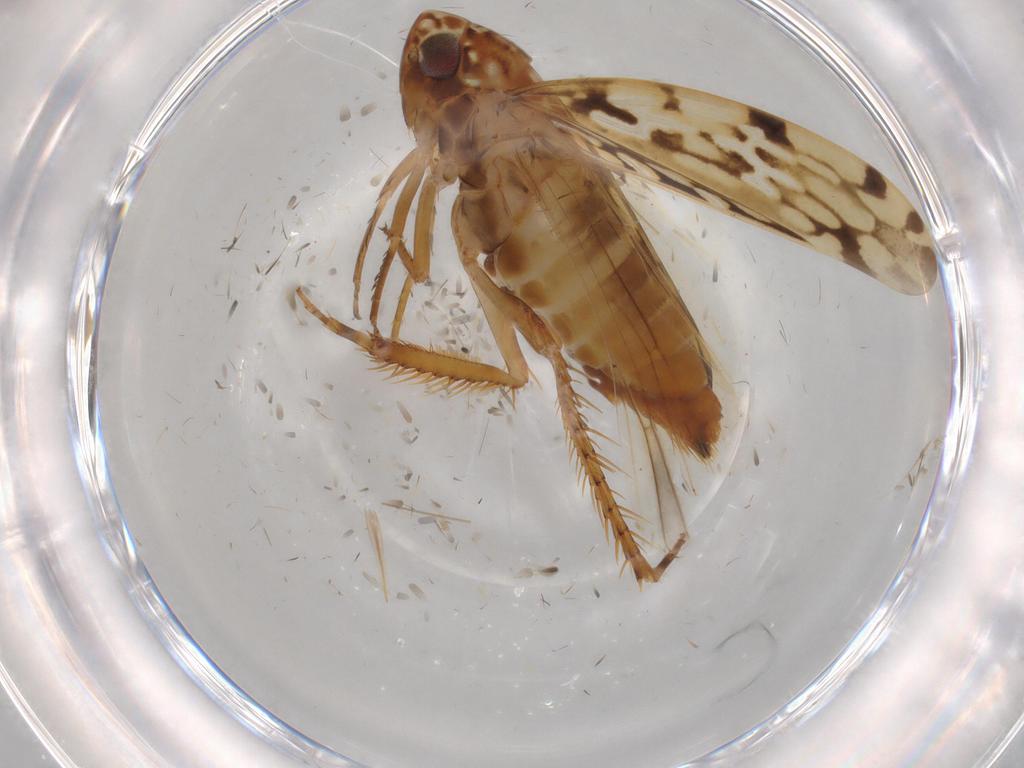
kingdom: Animalia
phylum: Arthropoda
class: Insecta
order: Hemiptera
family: Cicadellidae
